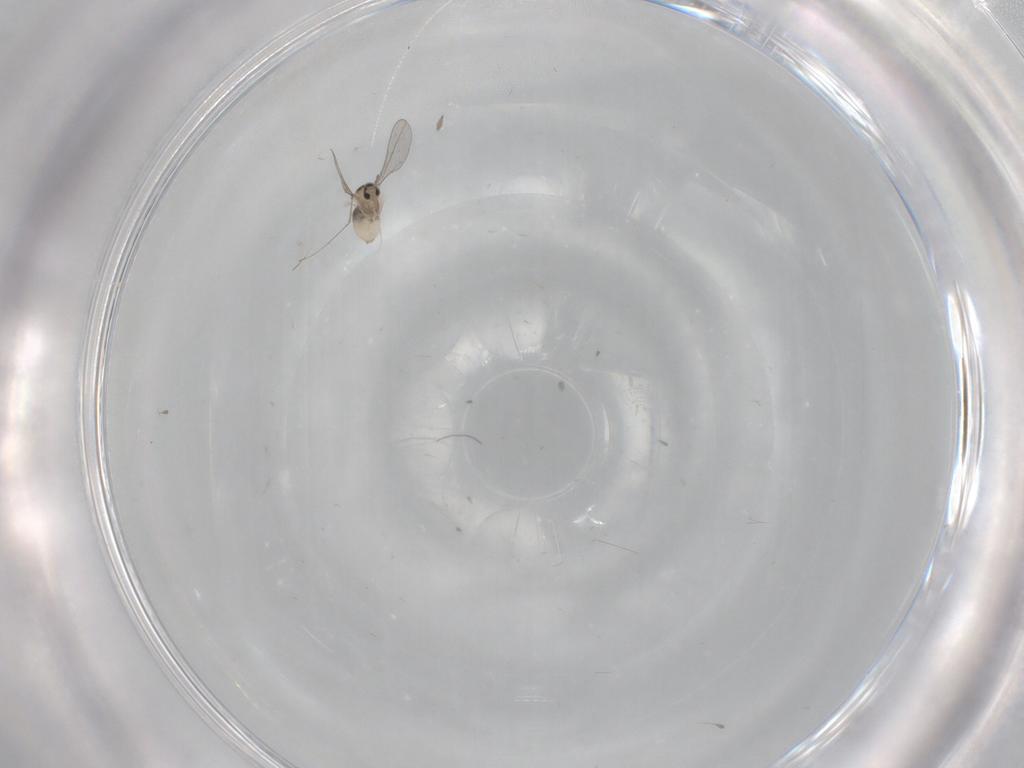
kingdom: Animalia
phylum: Arthropoda
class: Insecta
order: Diptera
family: Cecidomyiidae
